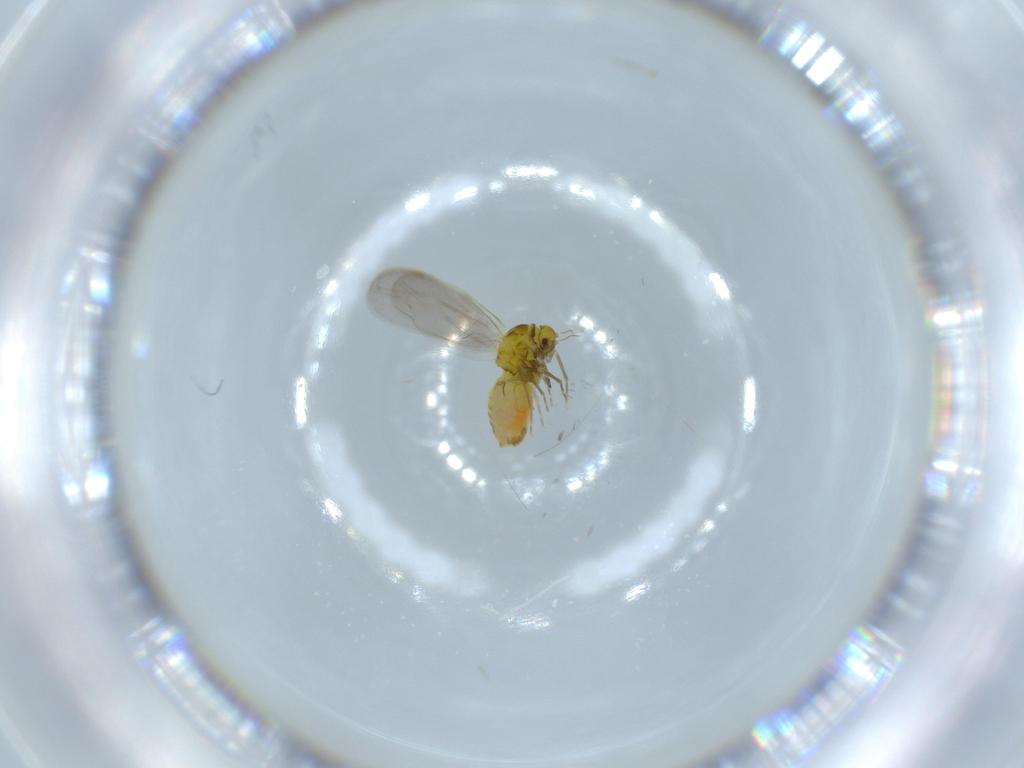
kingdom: Animalia
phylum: Arthropoda
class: Insecta
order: Hemiptera
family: Aleyrodidae
